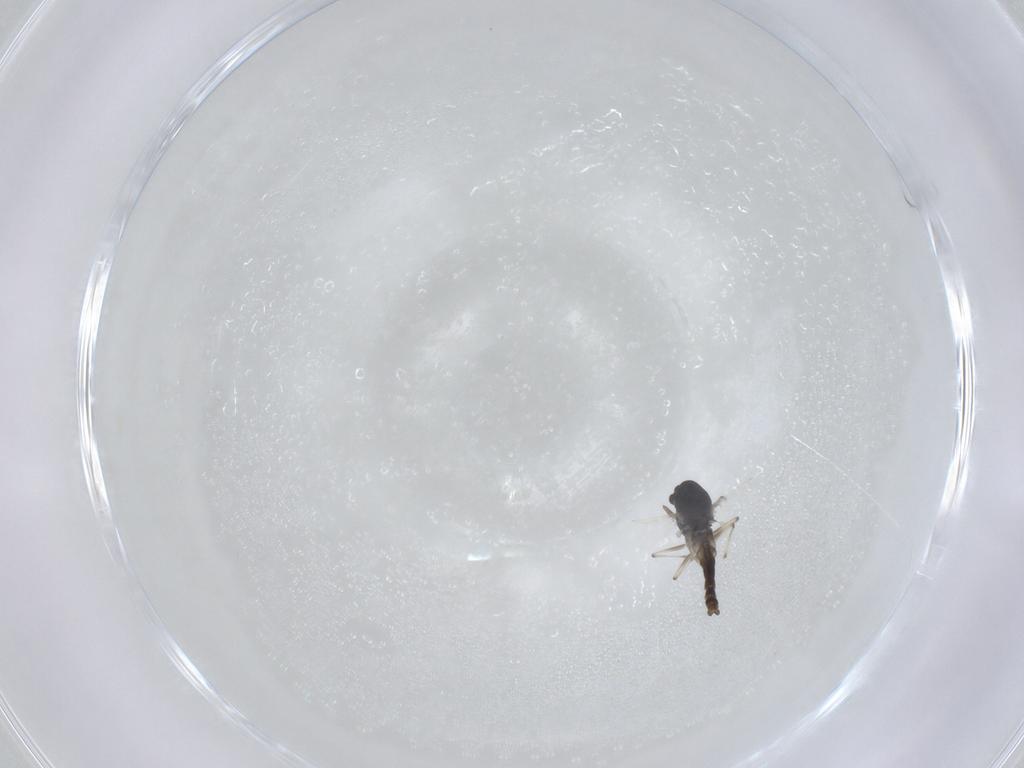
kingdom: Animalia
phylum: Arthropoda
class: Insecta
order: Diptera
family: Chironomidae
